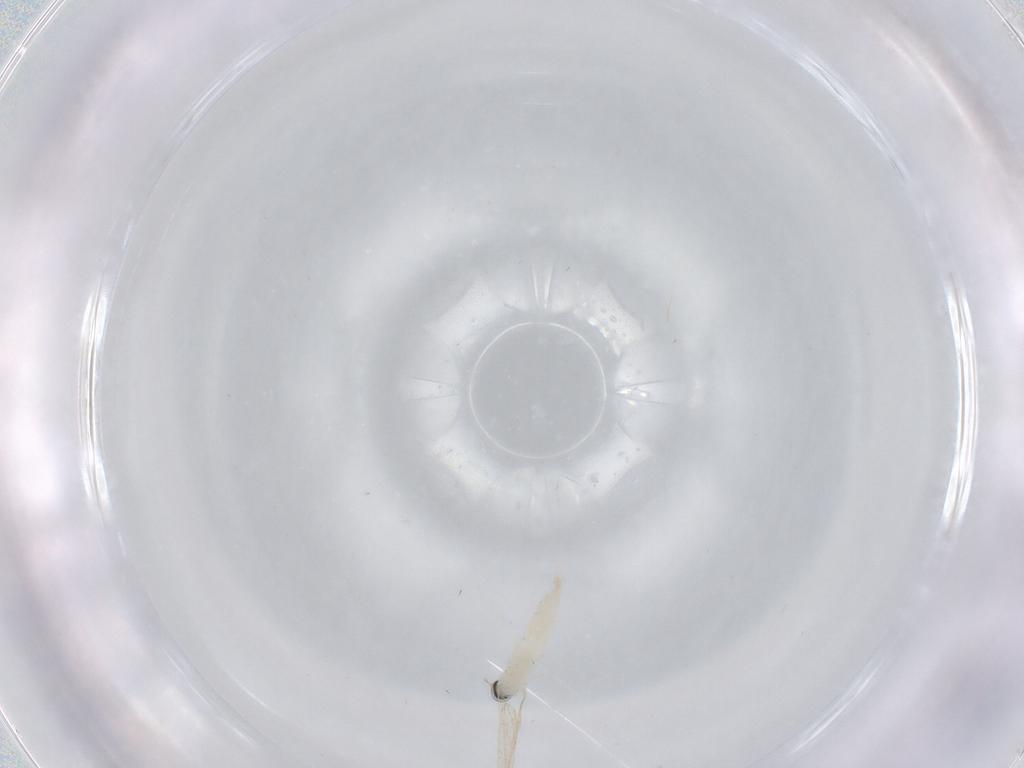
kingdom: Animalia
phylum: Arthropoda
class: Insecta
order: Diptera
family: Cecidomyiidae
